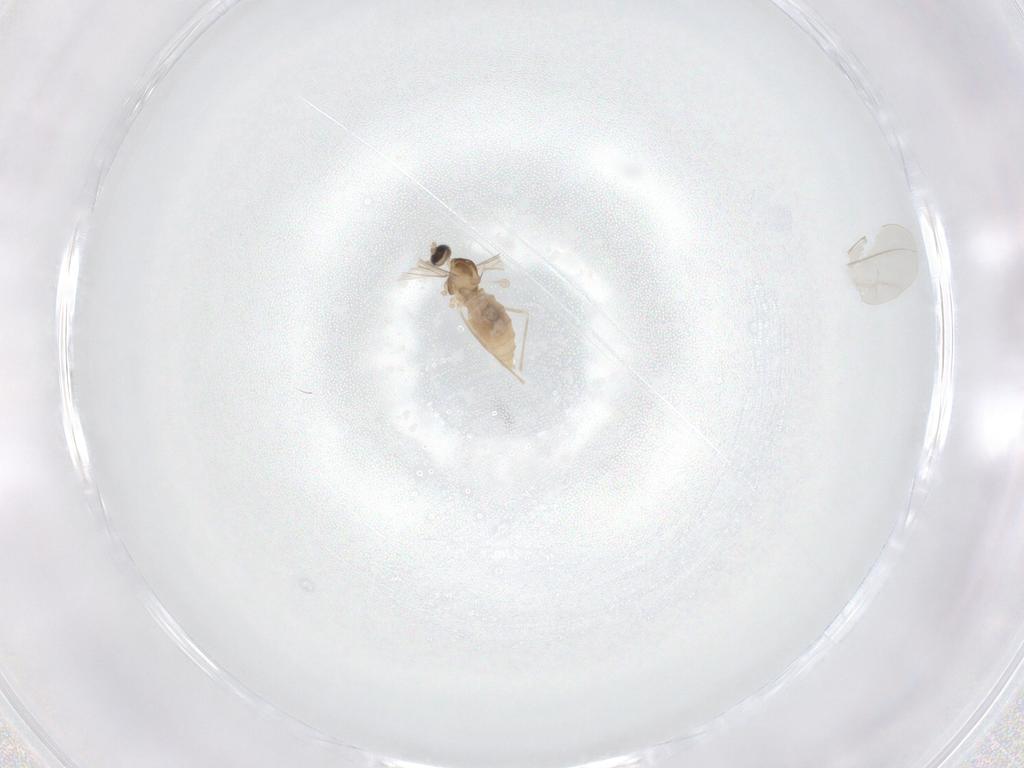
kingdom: Animalia
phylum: Arthropoda
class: Insecta
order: Diptera
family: Cecidomyiidae
